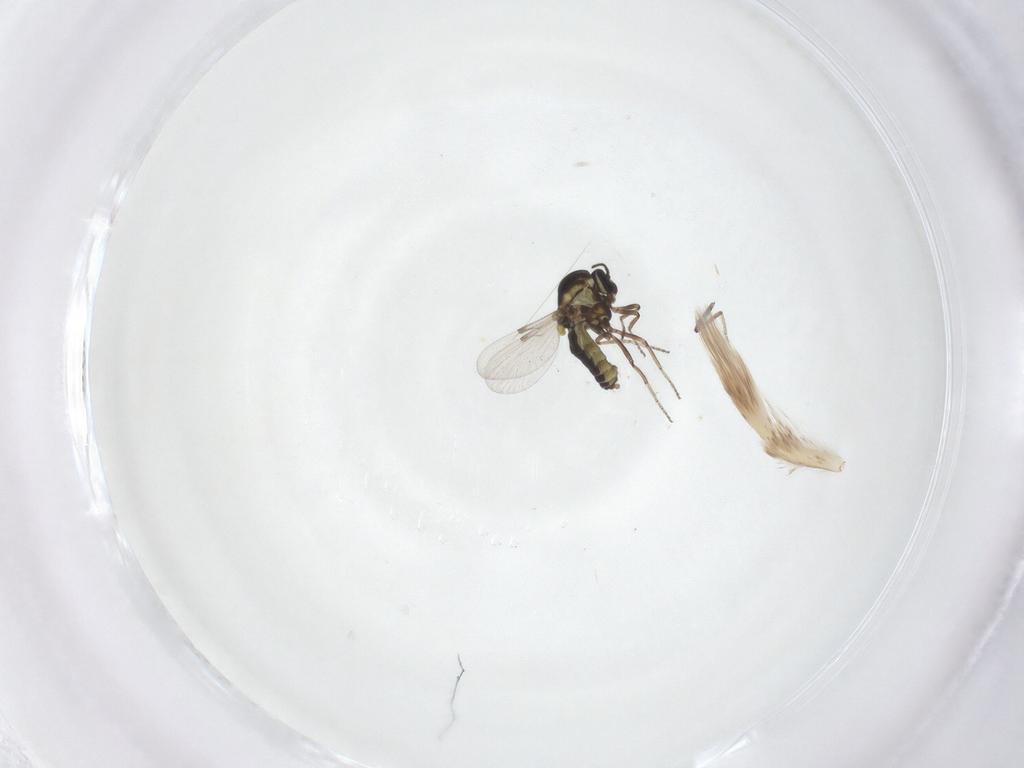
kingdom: Animalia
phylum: Arthropoda
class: Insecta
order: Diptera
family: Ceratopogonidae
